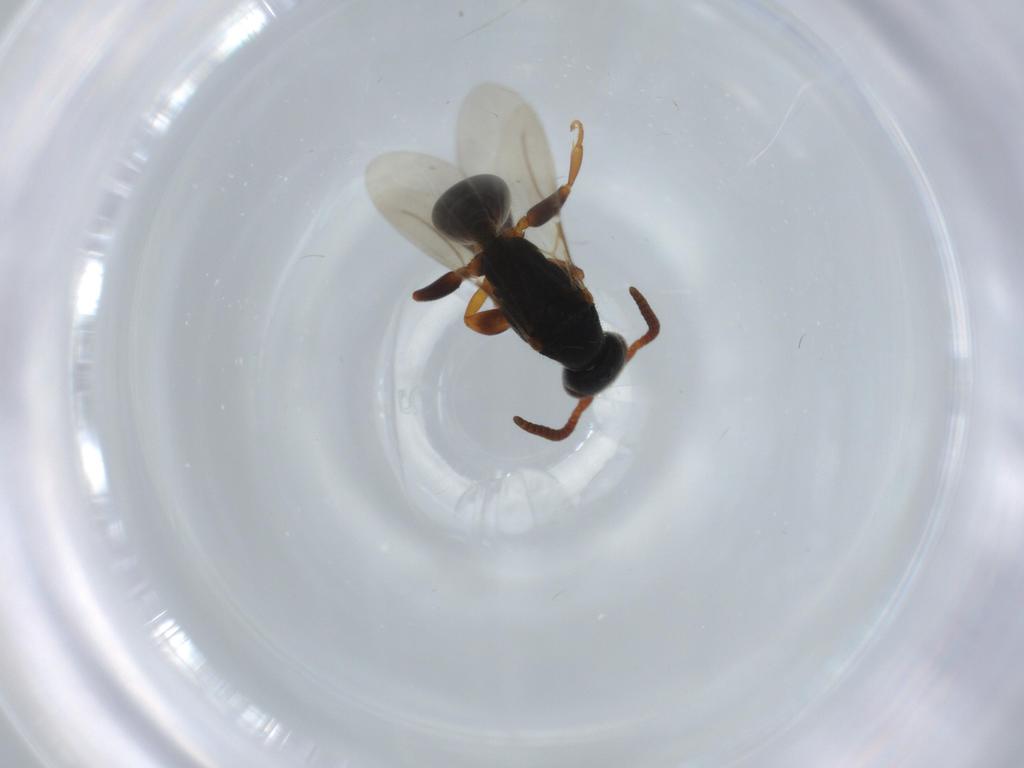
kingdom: Animalia
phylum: Arthropoda
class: Insecta
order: Hymenoptera
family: Bethylidae
